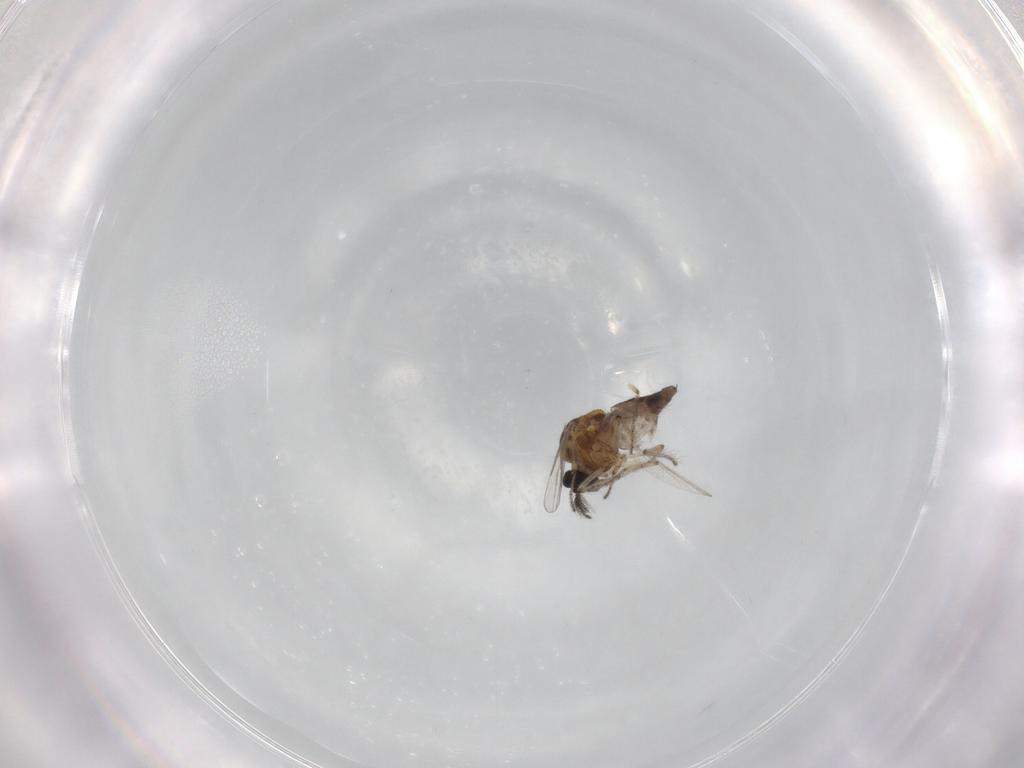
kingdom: Animalia
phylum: Arthropoda
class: Insecta
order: Diptera
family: Ceratopogonidae
